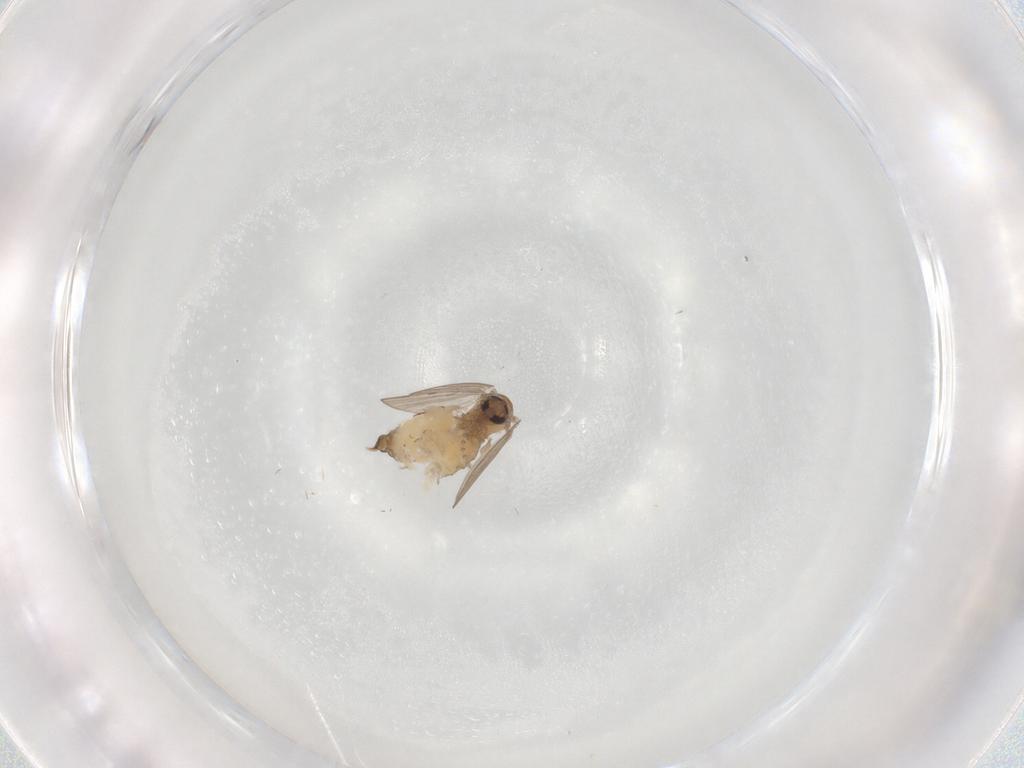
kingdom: Animalia
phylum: Arthropoda
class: Insecta
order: Diptera
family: Psychodidae
